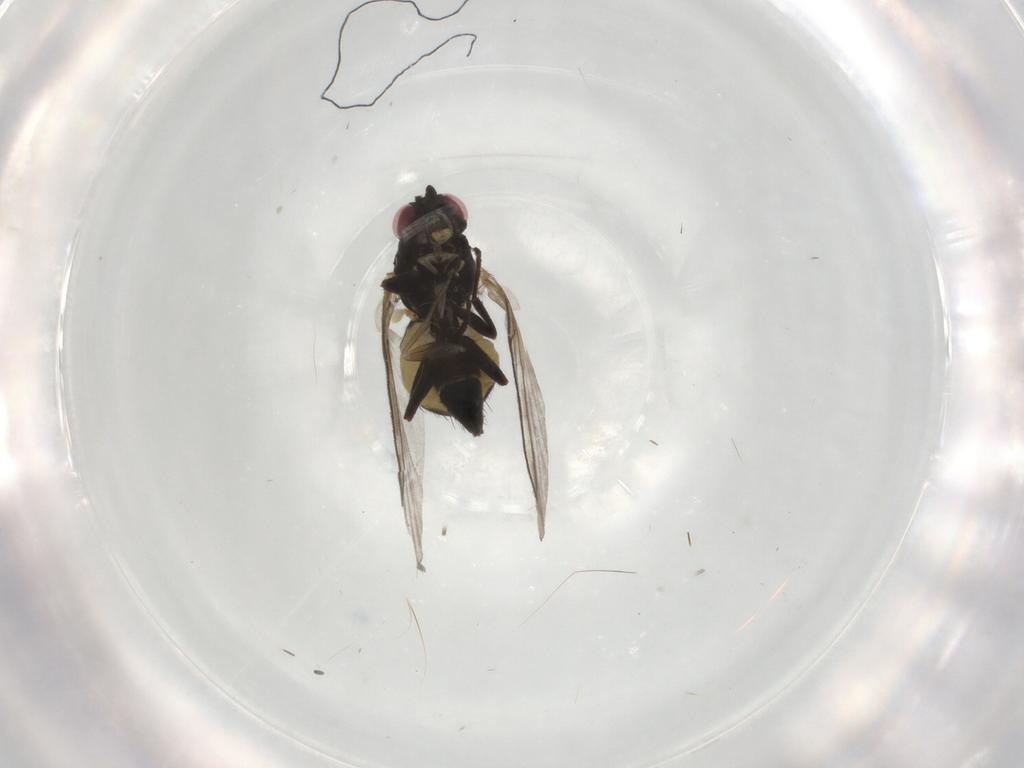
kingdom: Animalia
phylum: Arthropoda
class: Insecta
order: Diptera
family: Agromyzidae
